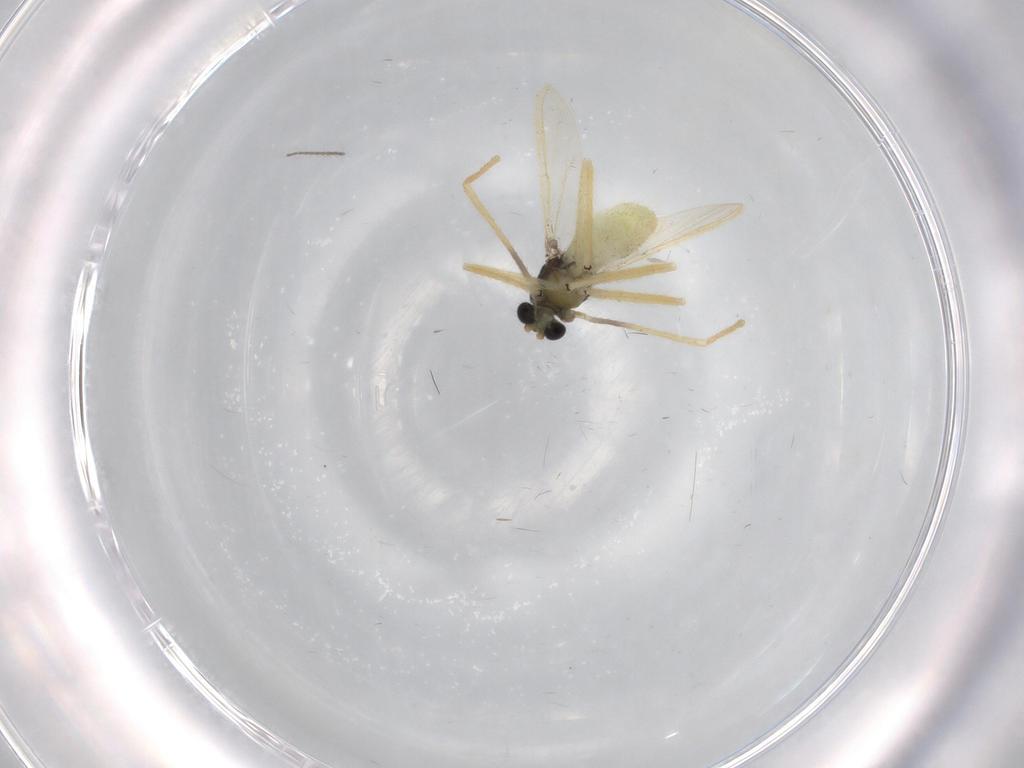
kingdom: Animalia
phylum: Arthropoda
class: Insecta
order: Diptera
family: Chironomidae
